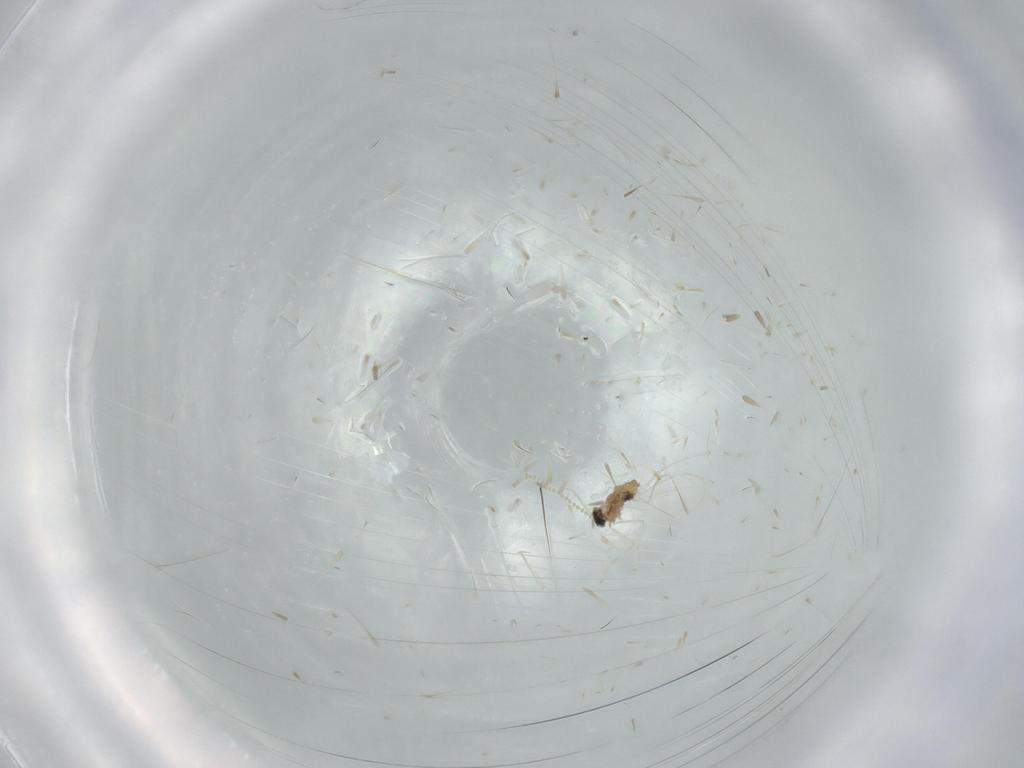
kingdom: Animalia
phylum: Arthropoda
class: Insecta
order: Diptera
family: Cecidomyiidae
